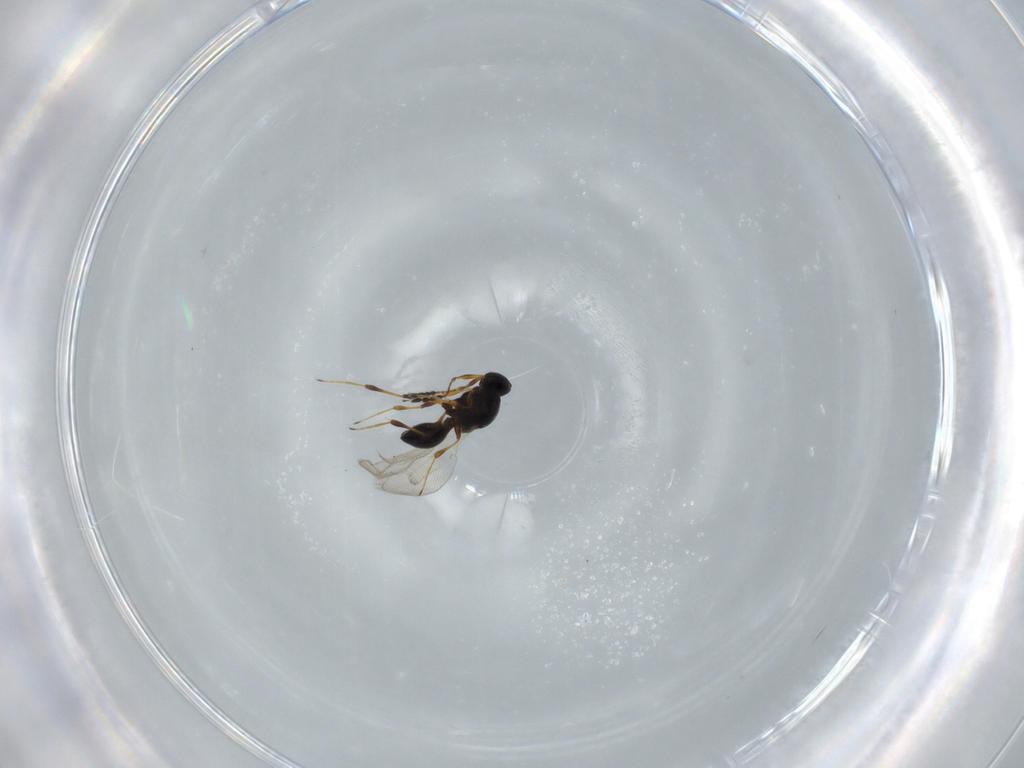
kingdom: Animalia
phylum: Arthropoda
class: Insecta
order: Hymenoptera
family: Platygastridae
